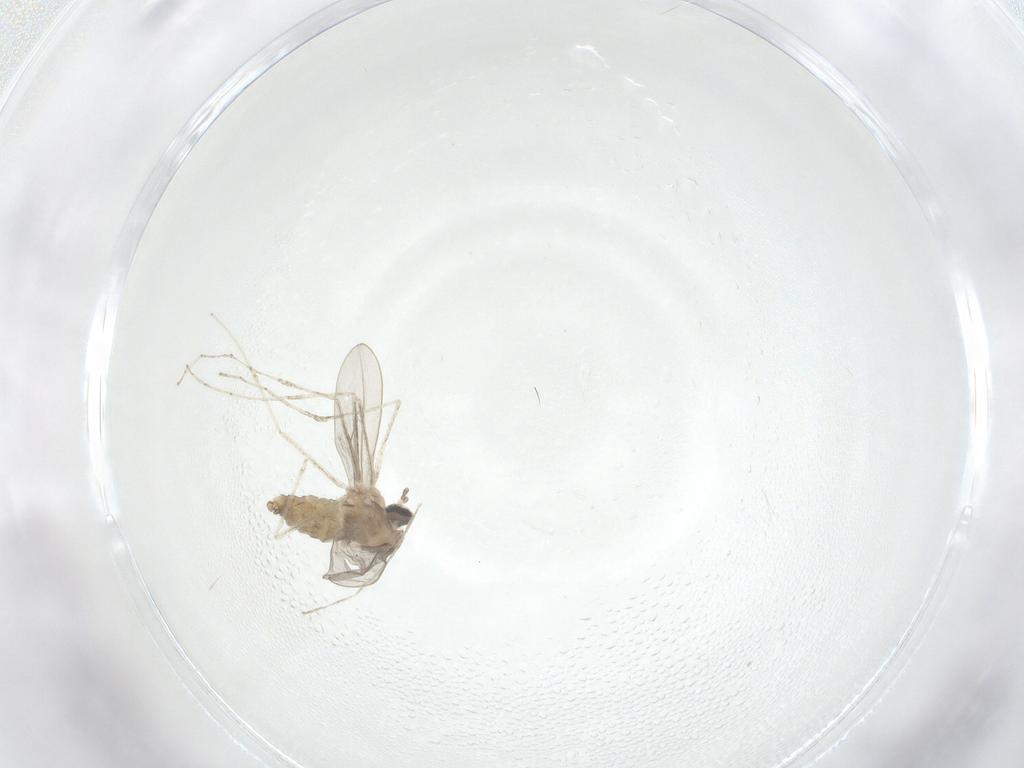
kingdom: Animalia
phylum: Arthropoda
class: Insecta
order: Diptera
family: Cecidomyiidae
